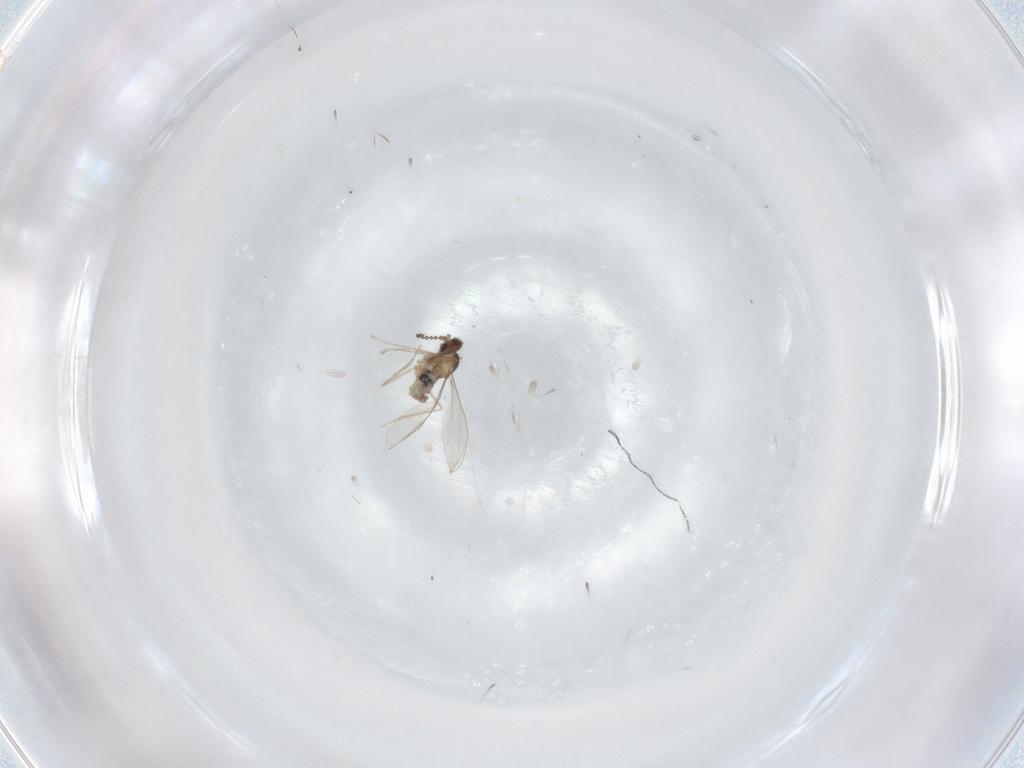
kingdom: Animalia
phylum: Arthropoda
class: Insecta
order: Diptera
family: Cecidomyiidae
